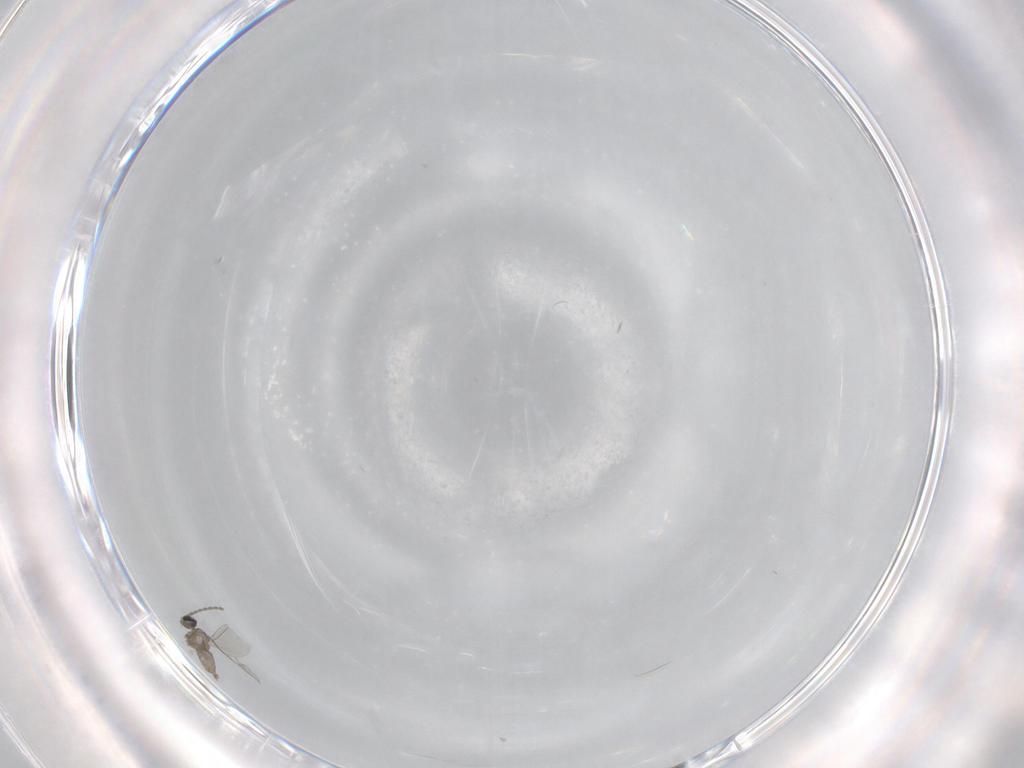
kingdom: Animalia
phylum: Arthropoda
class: Insecta
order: Diptera
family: Cecidomyiidae
